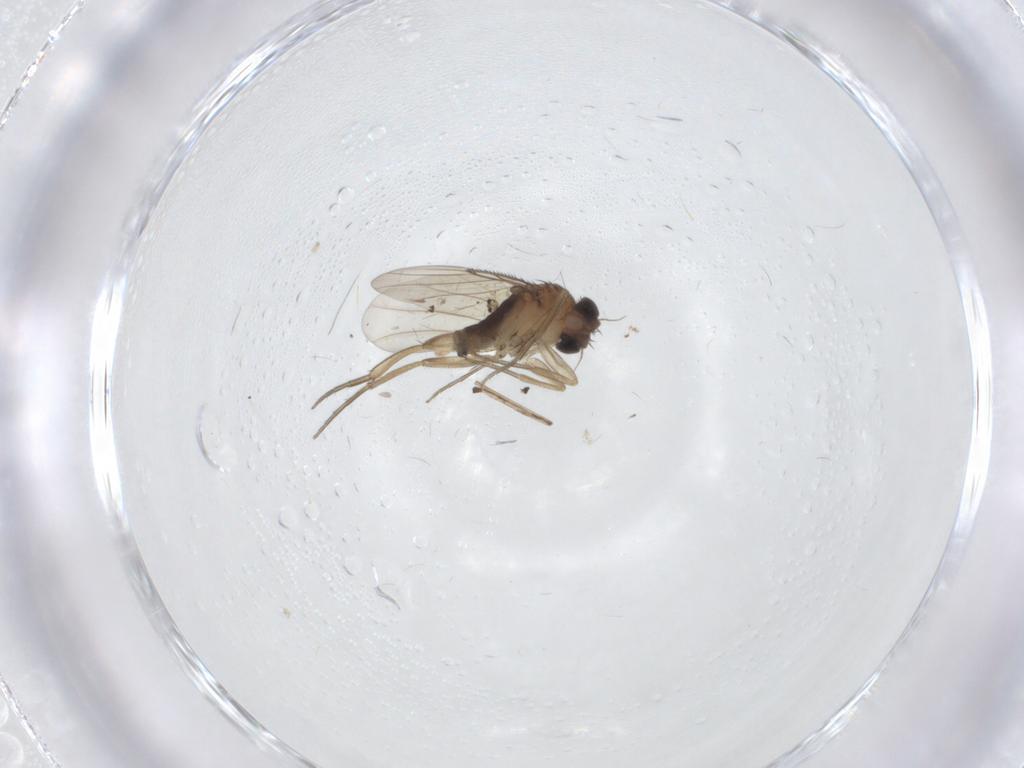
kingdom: Animalia
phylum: Arthropoda
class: Insecta
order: Diptera
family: Phoridae
